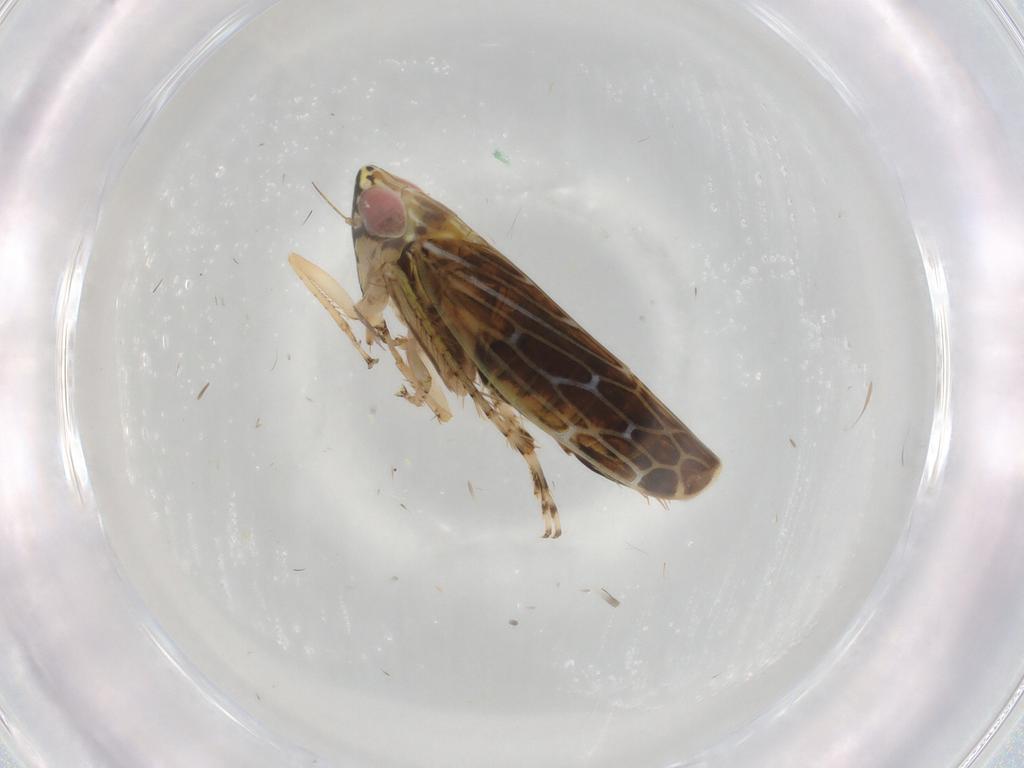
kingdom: Animalia
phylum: Arthropoda
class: Insecta
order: Hemiptera
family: Cicadellidae
